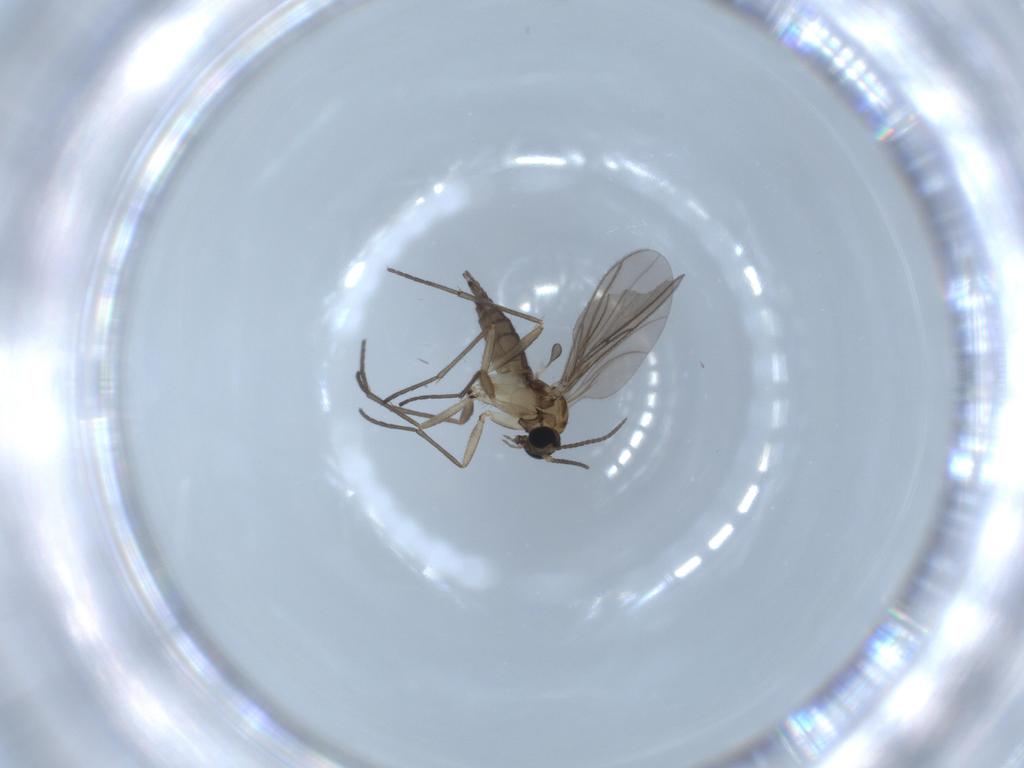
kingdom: Animalia
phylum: Arthropoda
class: Insecta
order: Diptera
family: Sciaridae
